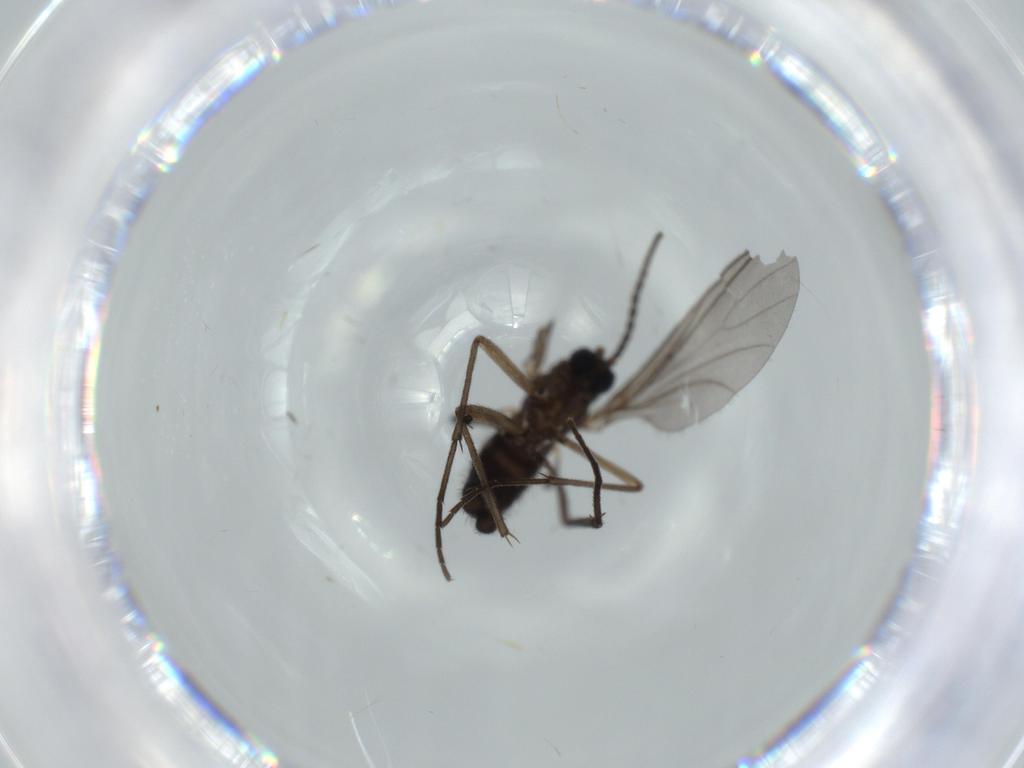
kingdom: Animalia
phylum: Arthropoda
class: Insecta
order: Diptera
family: Sciaridae
